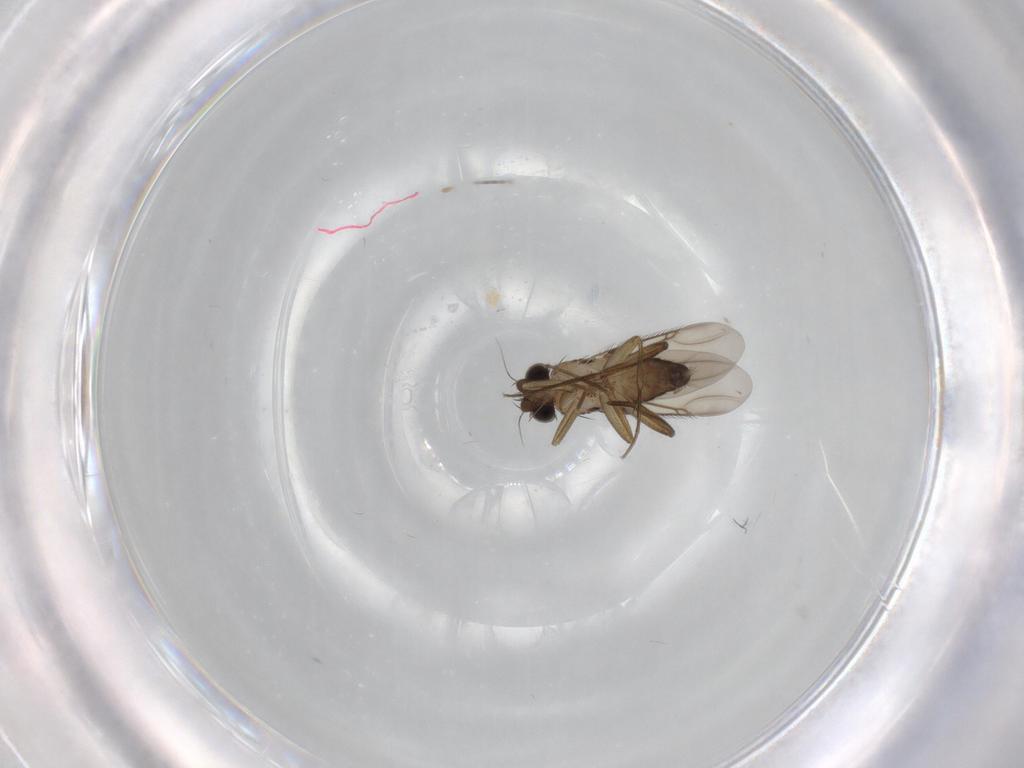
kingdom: Animalia
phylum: Arthropoda
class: Insecta
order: Diptera
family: Phoridae
